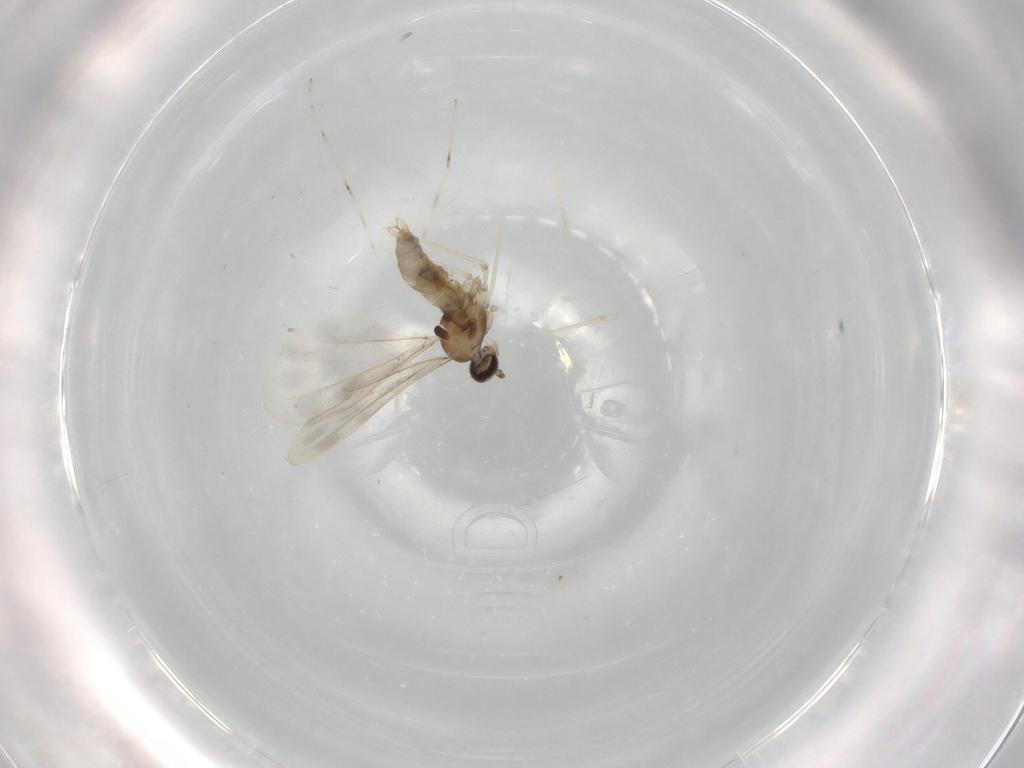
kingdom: Animalia
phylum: Arthropoda
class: Insecta
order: Diptera
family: Cecidomyiidae
